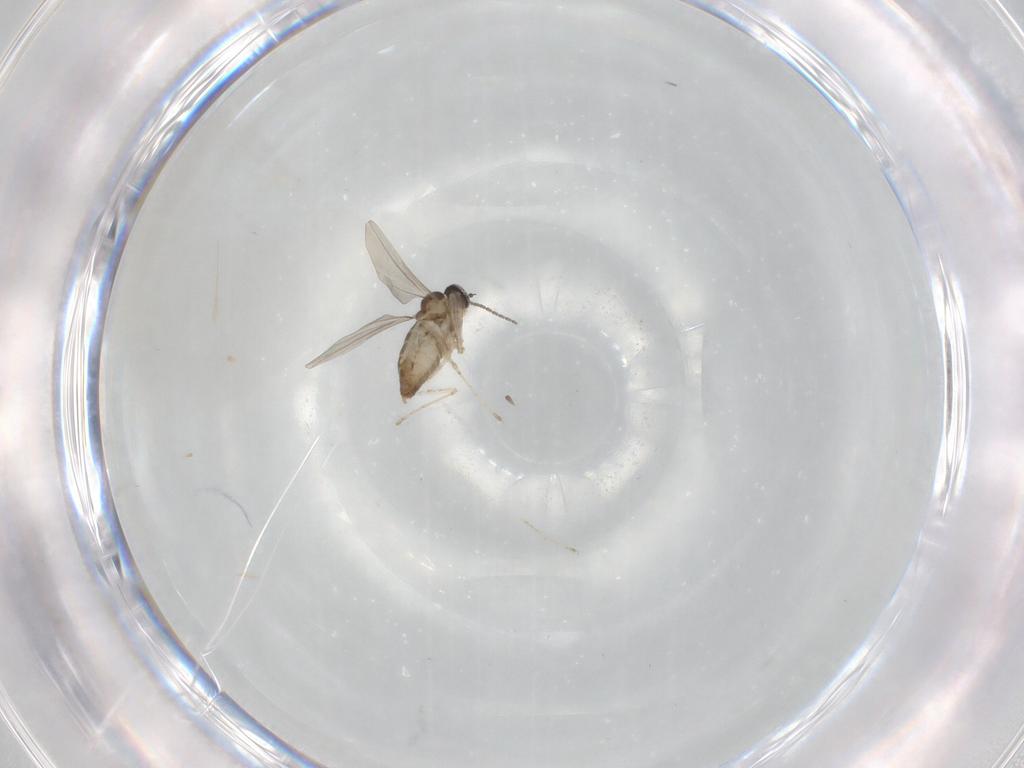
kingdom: Animalia
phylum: Arthropoda
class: Insecta
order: Diptera
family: Cecidomyiidae
